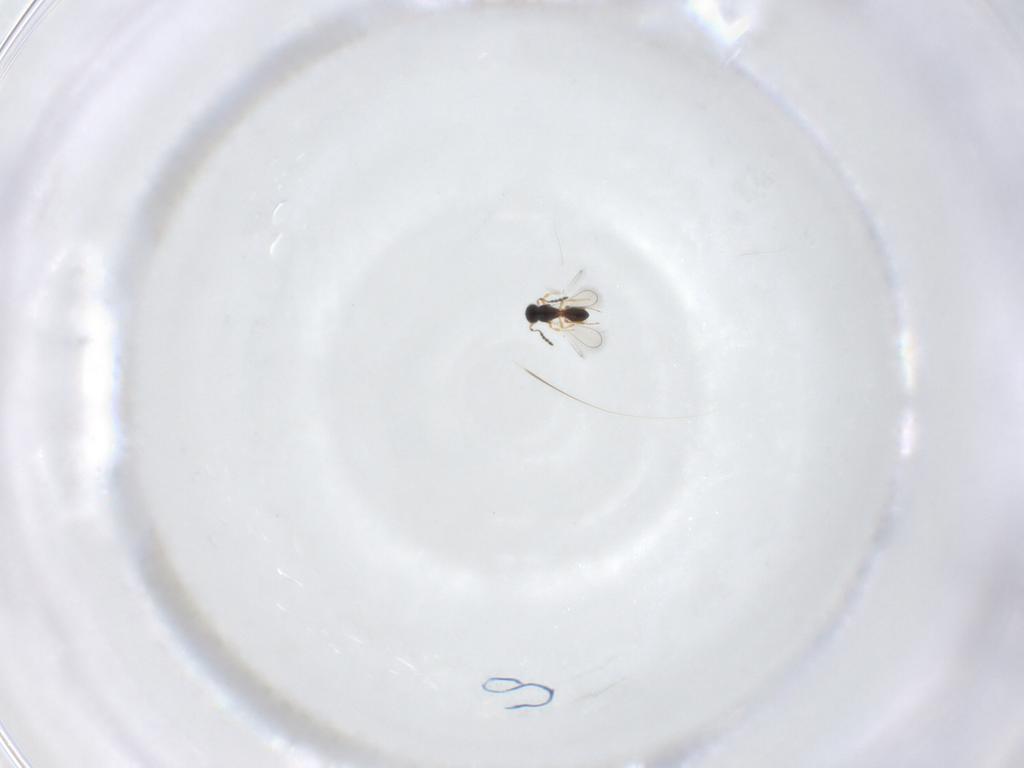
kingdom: Animalia
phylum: Arthropoda
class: Insecta
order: Hymenoptera
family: Platygastridae
